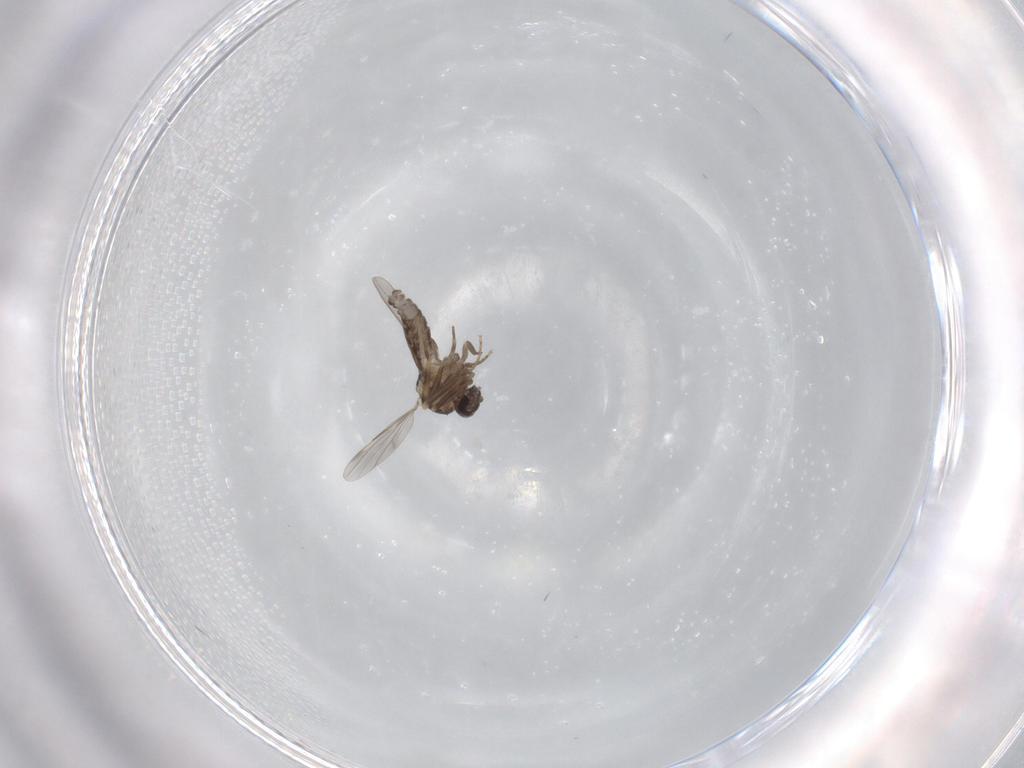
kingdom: Animalia
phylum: Arthropoda
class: Insecta
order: Diptera
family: Ceratopogonidae
